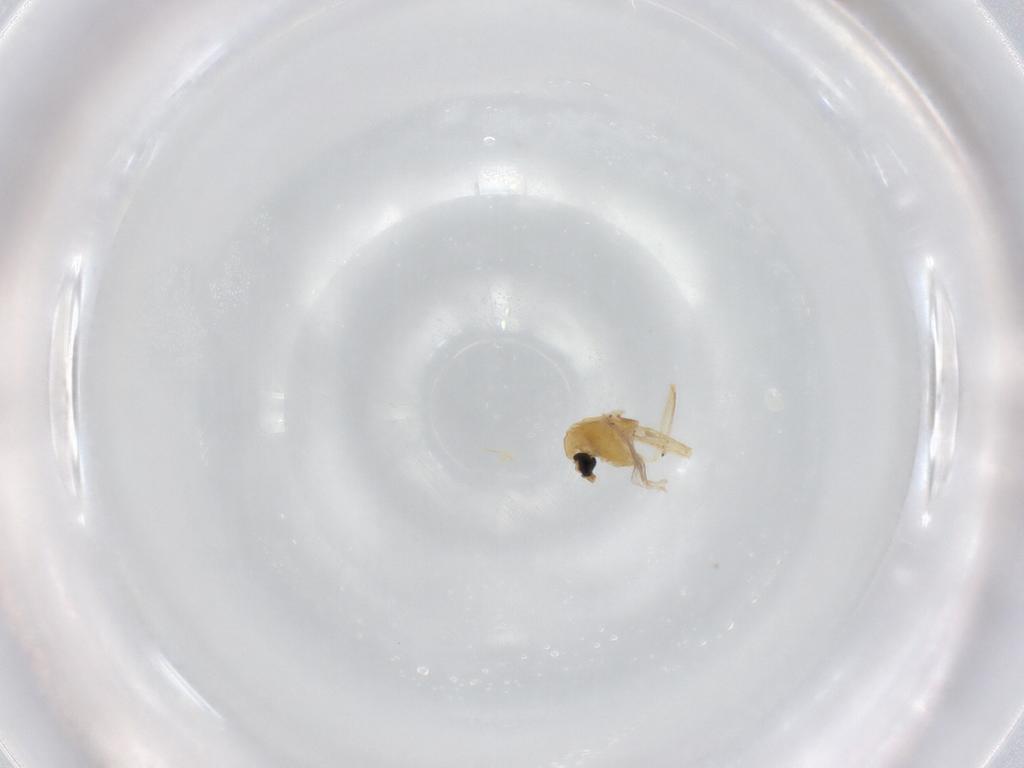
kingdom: Animalia
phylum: Arthropoda
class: Insecta
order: Diptera
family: Chironomidae
